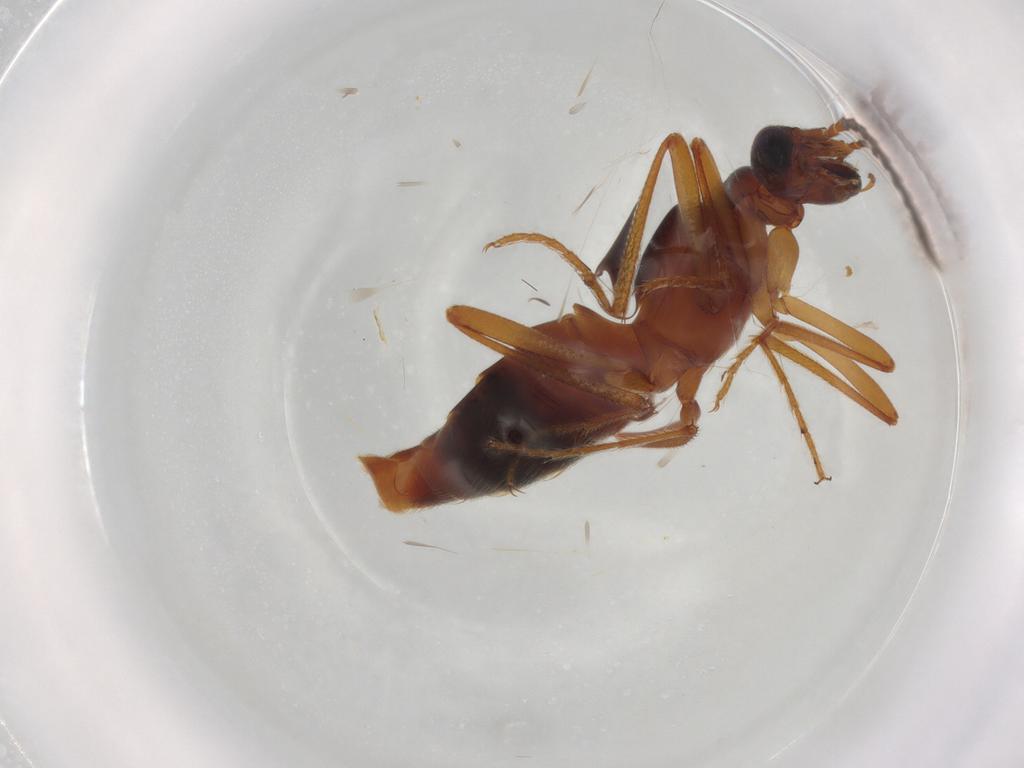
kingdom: Animalia
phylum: Arthropoda
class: Insecta
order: Coleoptera
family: Staphylinidae
